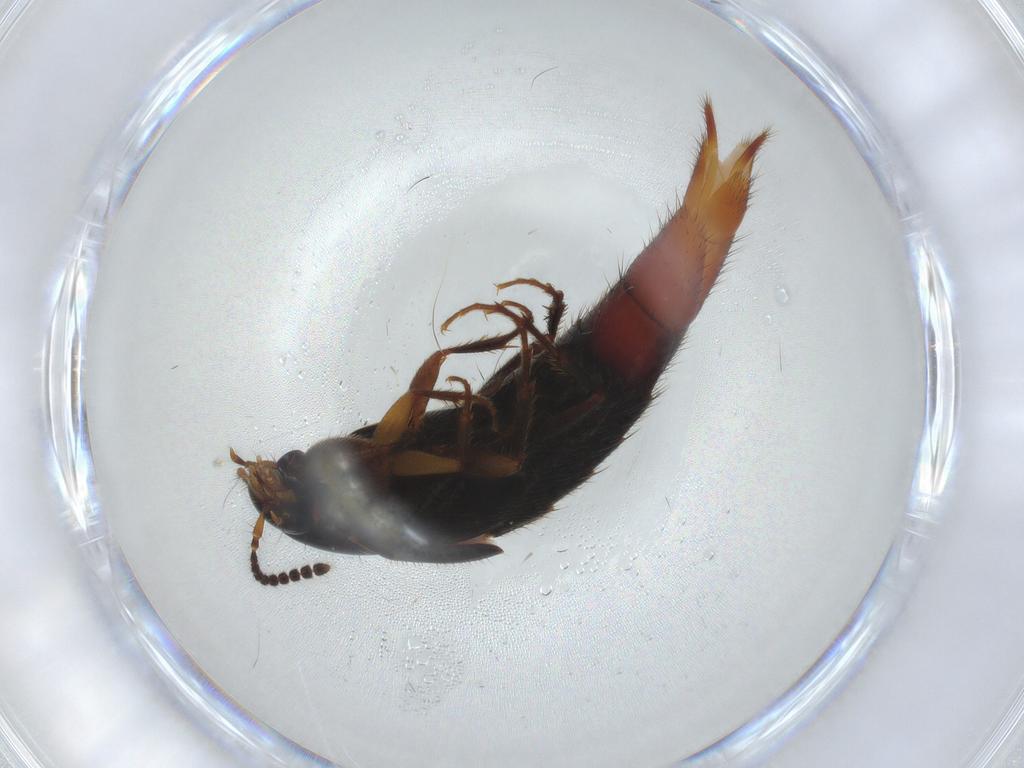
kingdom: Animalia
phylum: Arthropoda
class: Insecta
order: Coleoptera
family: Staphylinidae
